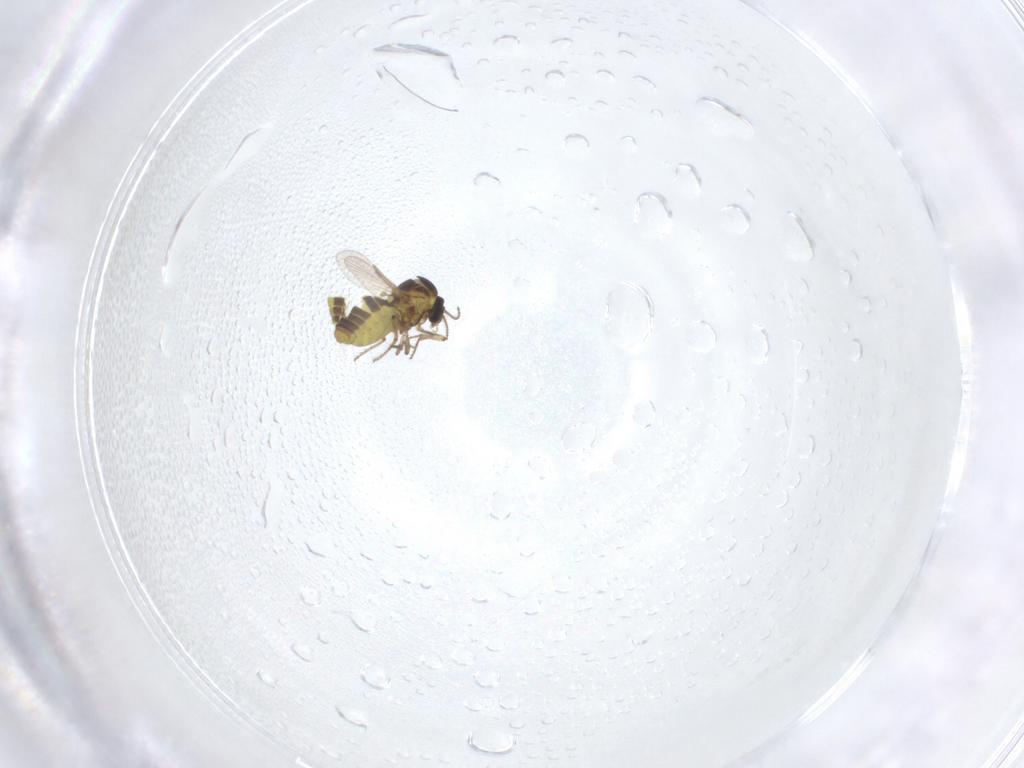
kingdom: Animalia
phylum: Arthropoda
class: Insecta
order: Diptera
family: Ceratopogonidae
